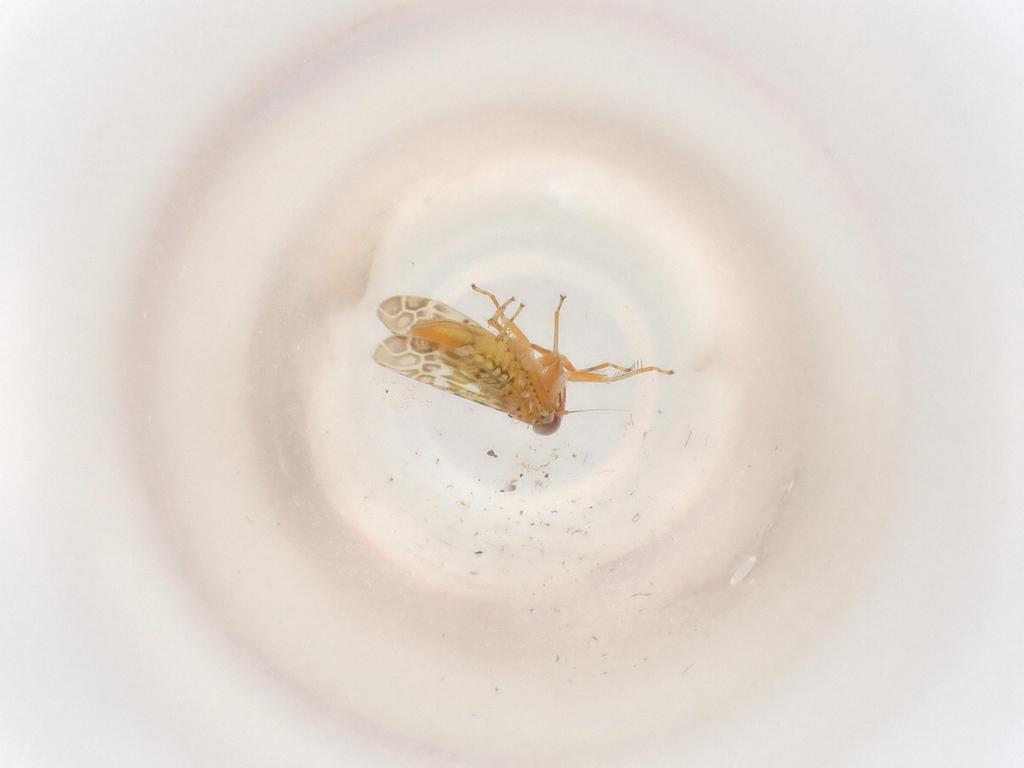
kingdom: Animalia
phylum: Arthropoda
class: Insecta
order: Hemiptera
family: Cicadellidae
